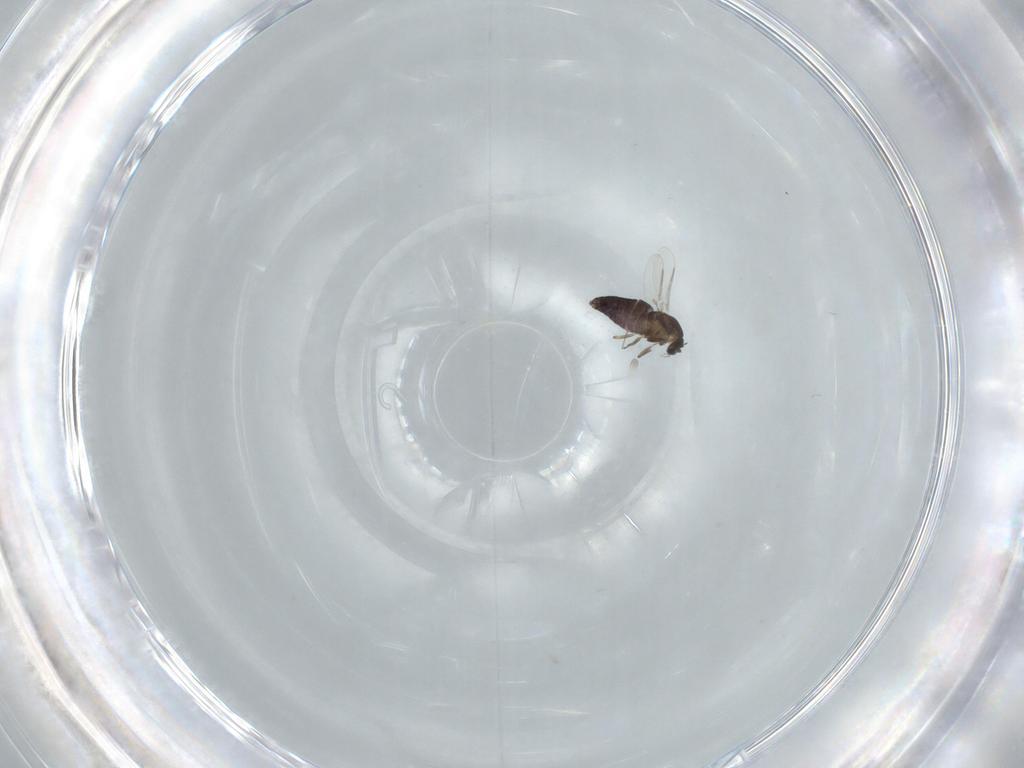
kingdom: Animalia
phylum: Arthropoda
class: Insecta
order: Diptera
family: Chironomidae
